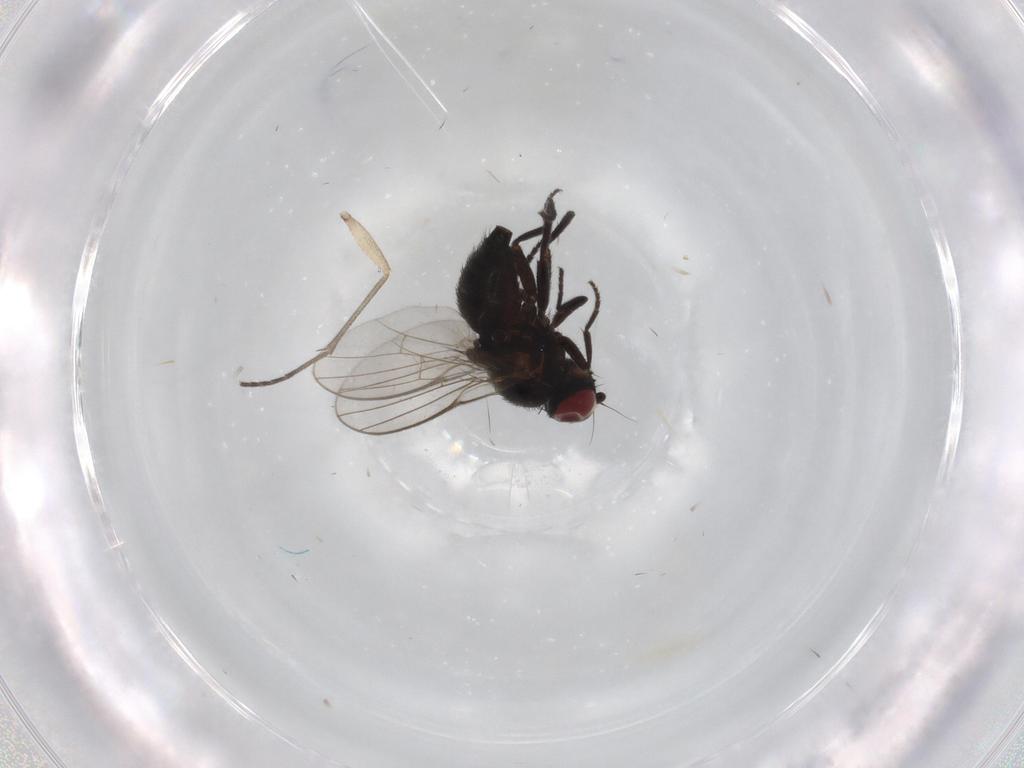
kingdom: Animalia
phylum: Arthropoda
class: Insecta
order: Diptera
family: Agromyzidae
